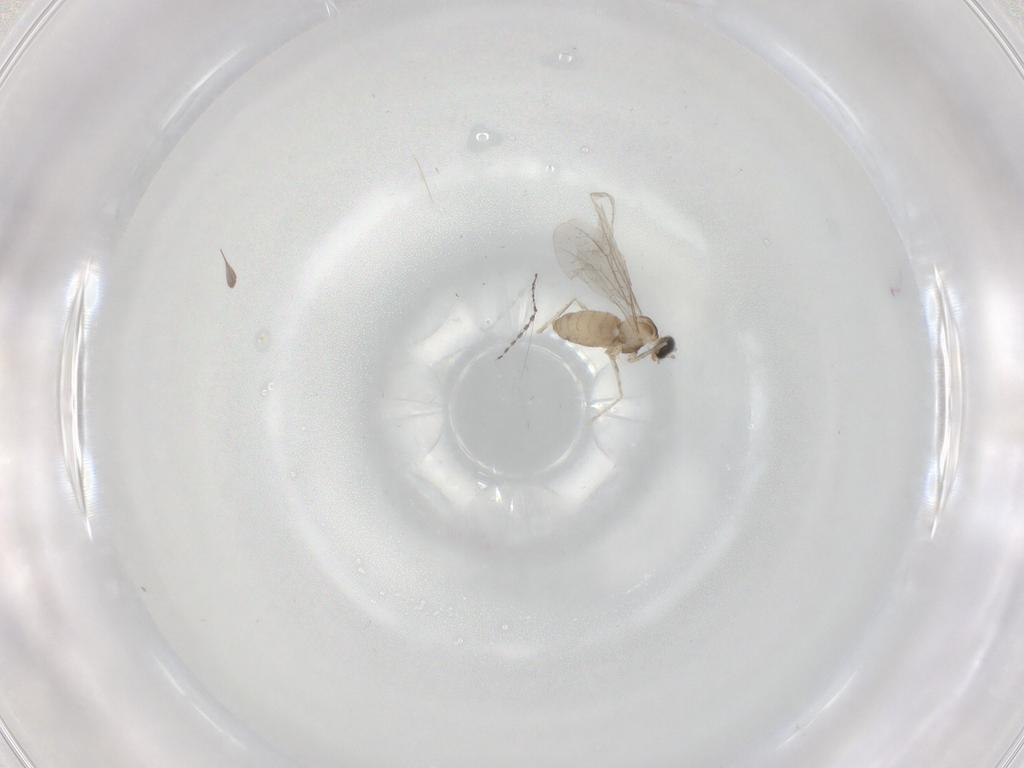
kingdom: Animalia
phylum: Arthropoda
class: Insecta
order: Diptera
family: Cecidomyiidae
